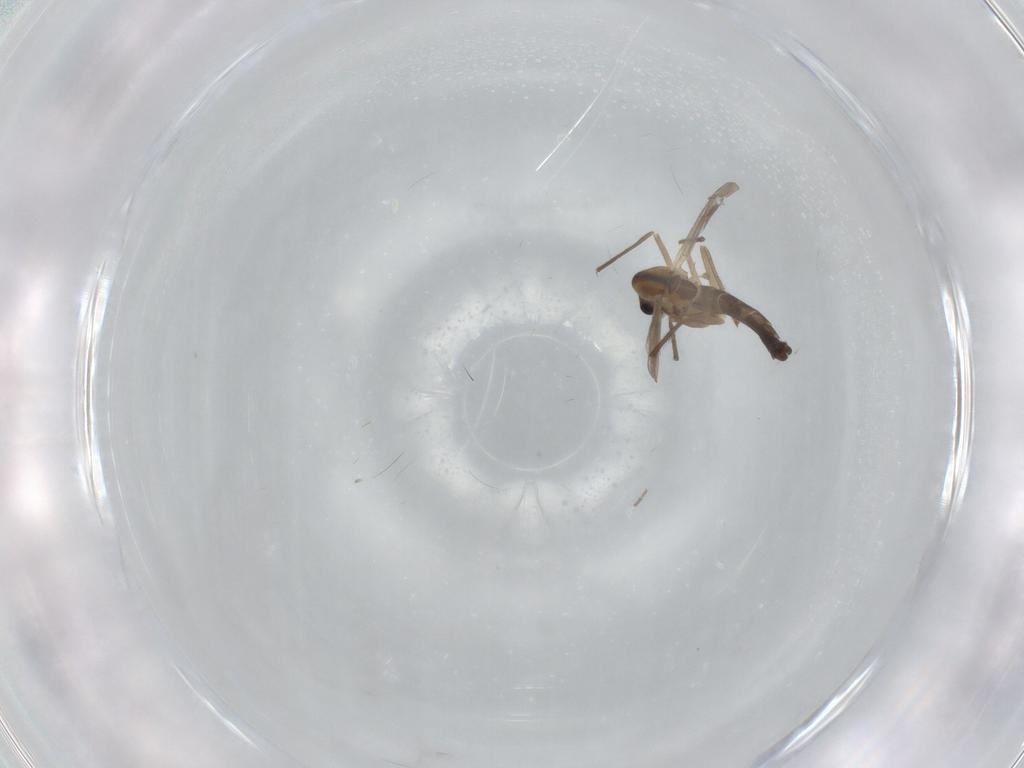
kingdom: Animalia
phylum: Arthropoda
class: Insecta
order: Diptera
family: Chironomidae
